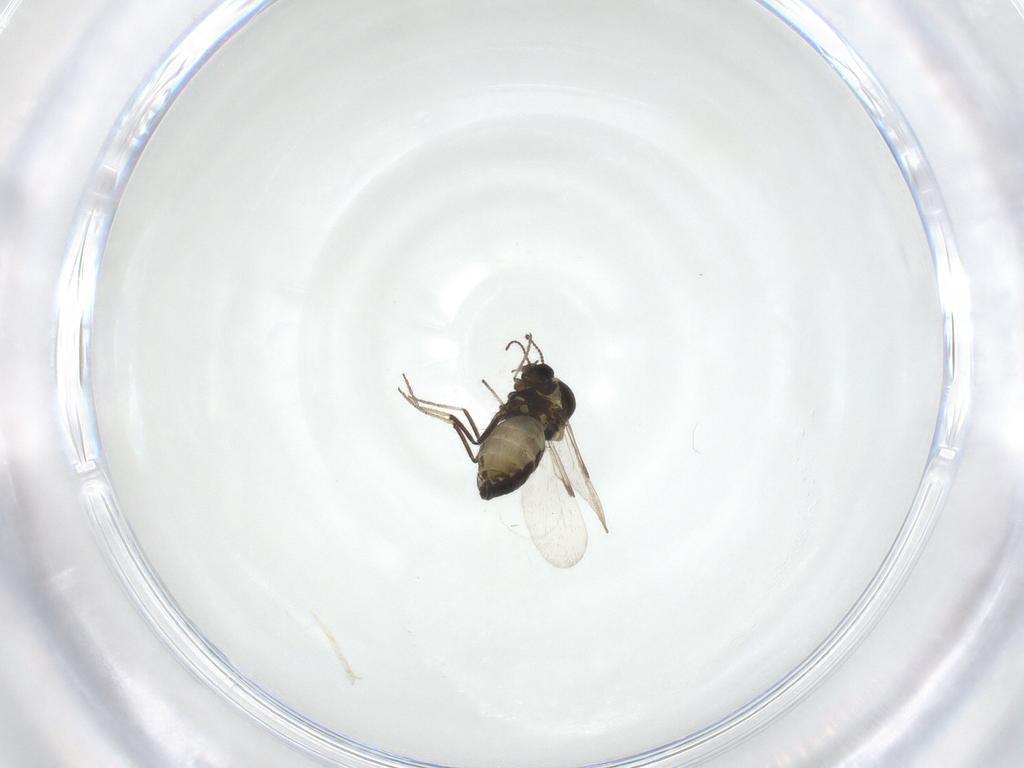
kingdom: Animalia
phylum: Arthropoda
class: Insecta
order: Diptera
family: Ceratopogonidae
